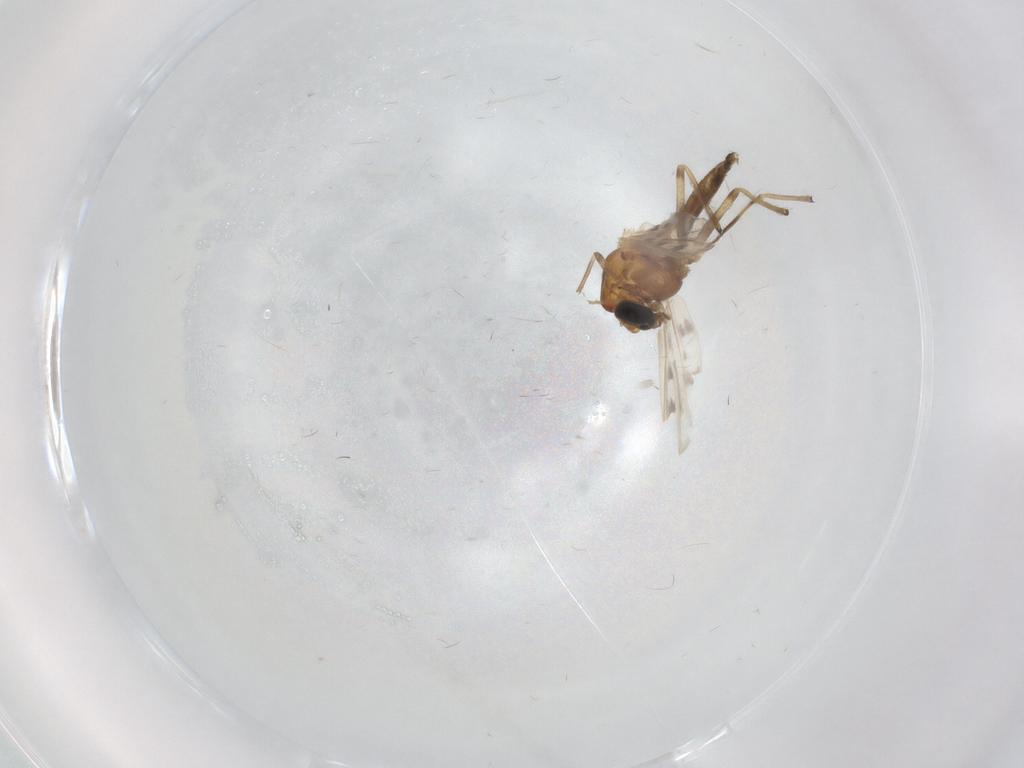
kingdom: Animalia
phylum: Arthropoda
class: Insecta
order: Diptera
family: Chironomidae
